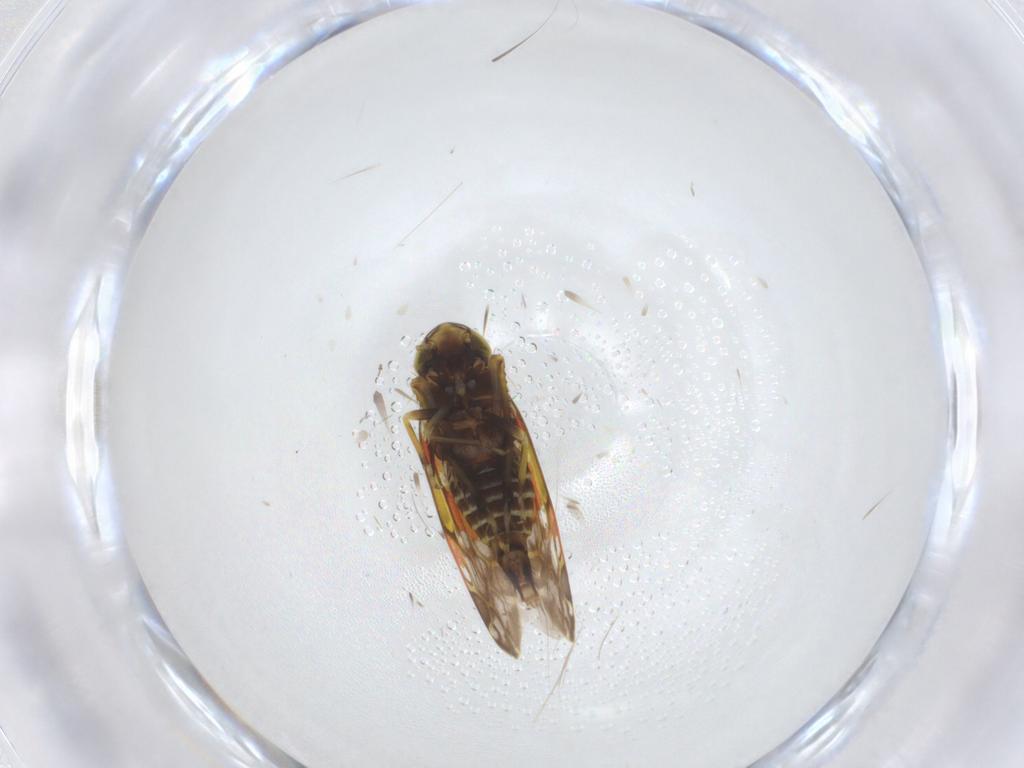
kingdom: Animalia
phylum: Arthropoda
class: Insecta
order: Hemiptera
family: Cicadellidae
